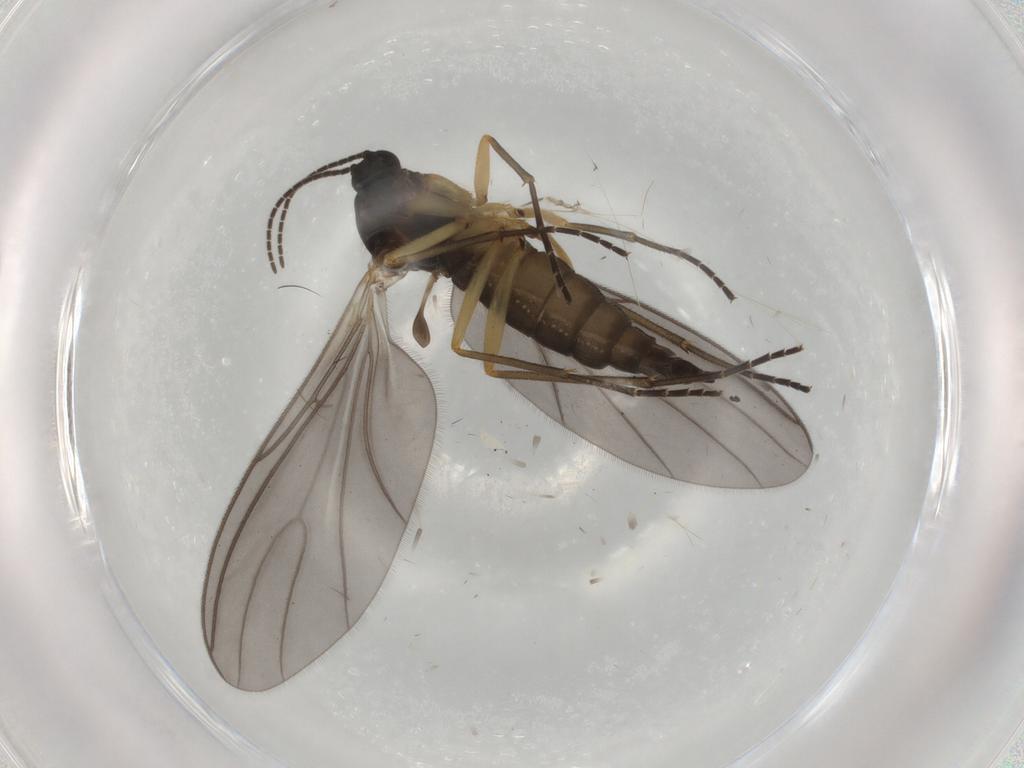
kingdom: Animalia
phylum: Arthropoda
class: Insecta
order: Diptera
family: Sciaridae
